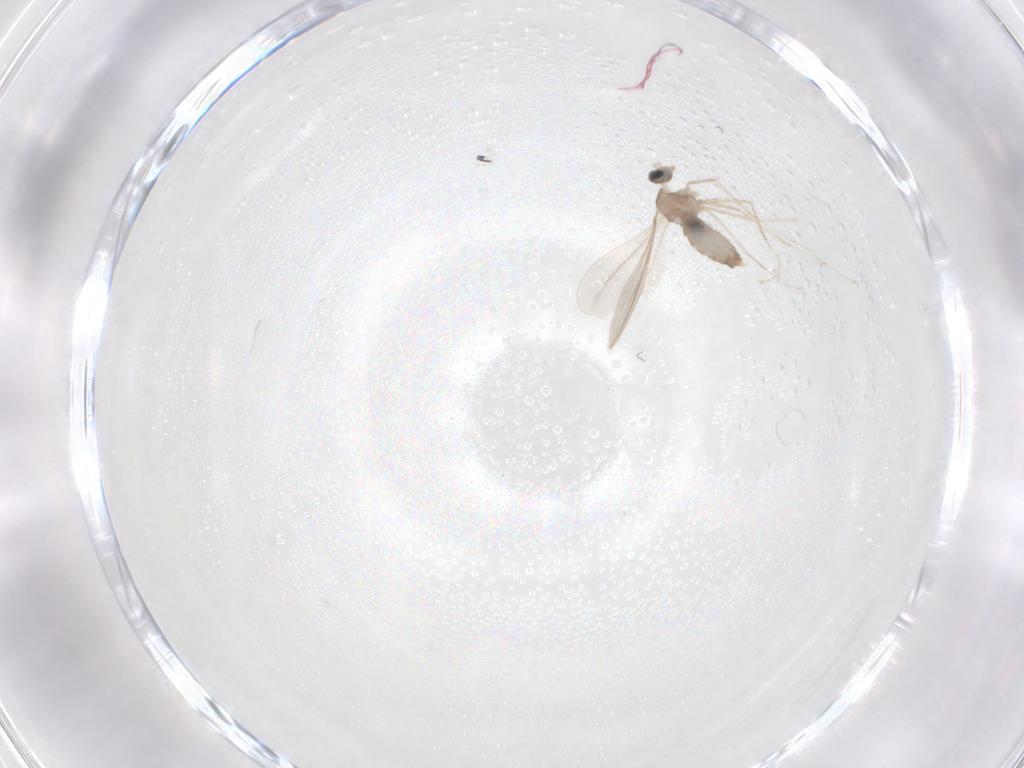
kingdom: Animalia
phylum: Arthropoda
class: Insecta
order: Diptera
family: Cecidomyiidae
